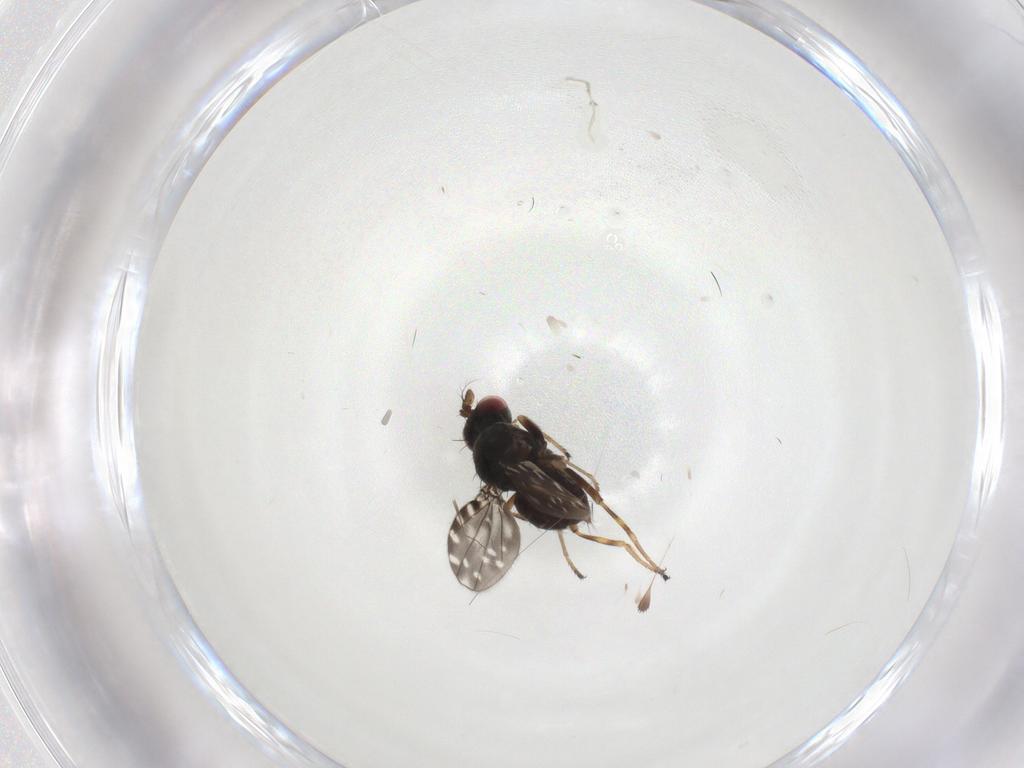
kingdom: Animalia
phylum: Arthropoda
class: Insecta
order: Diptera
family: Ephydridae
